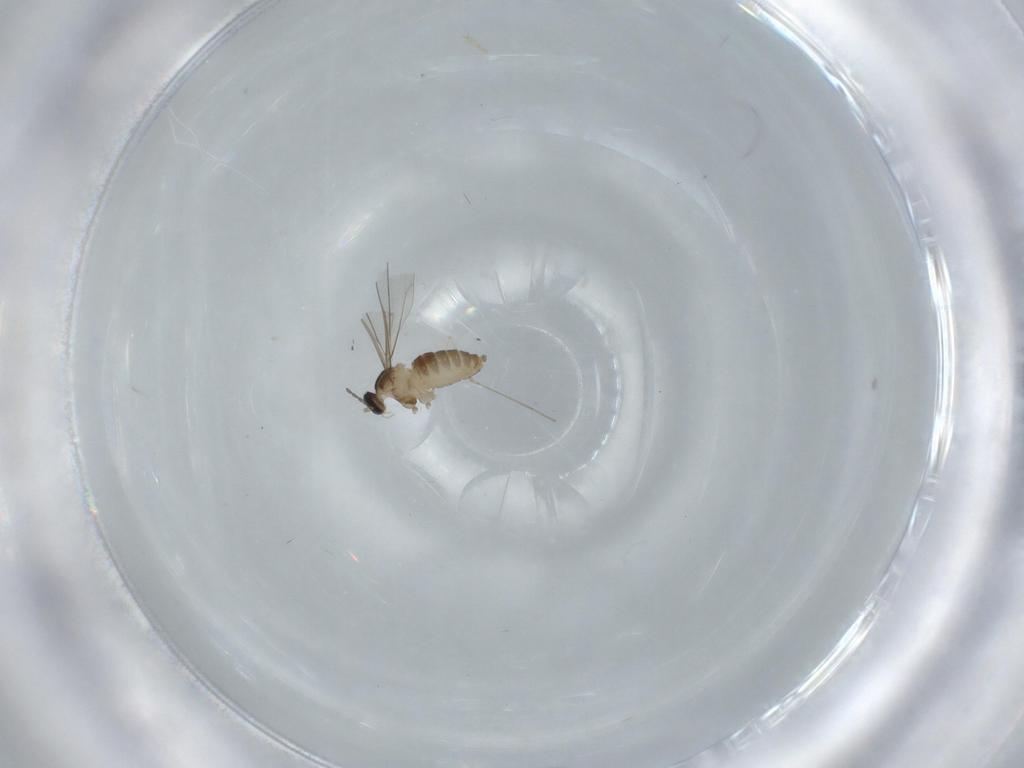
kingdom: Animalia
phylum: Arthropoda
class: Insecta
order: Diptera
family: Cecidomyiidae
